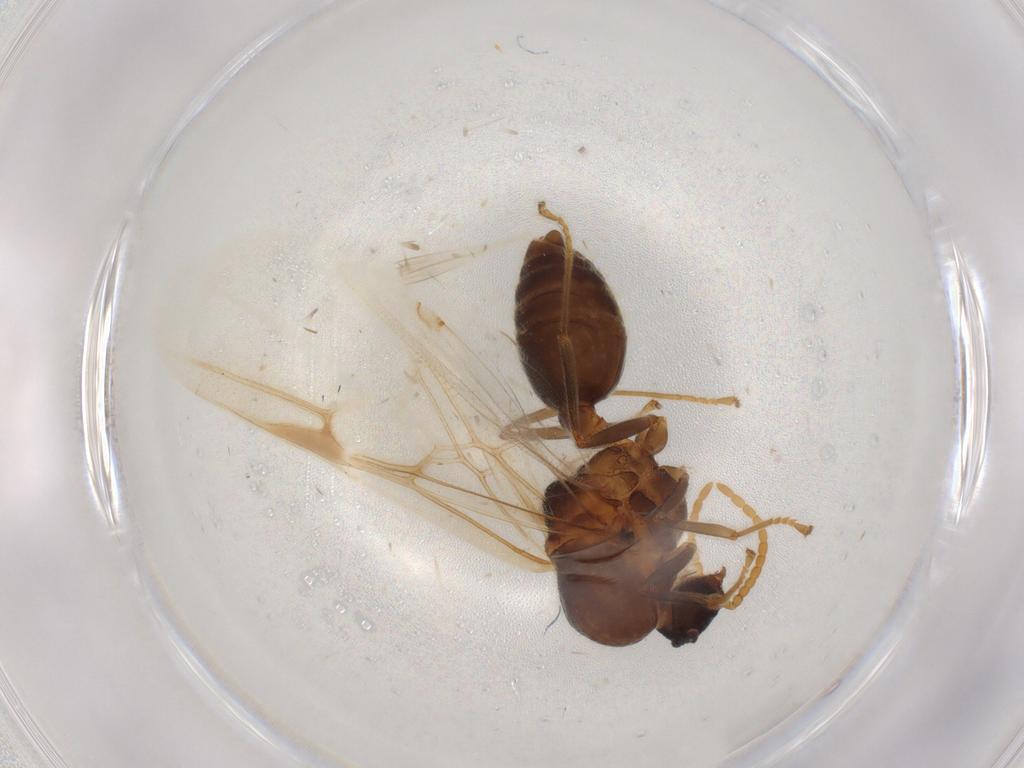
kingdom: Animalia
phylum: Arthropoda
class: Insecta
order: Hymenoptera
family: Formicidae
